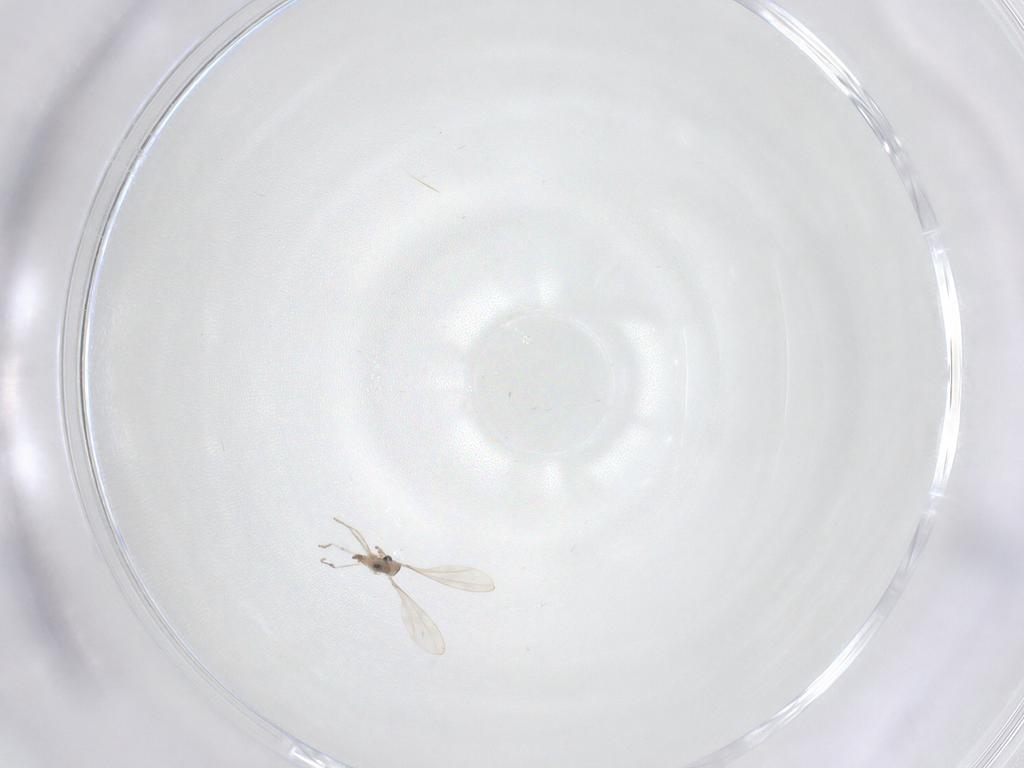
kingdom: Animalia
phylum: Arthropoda
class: Insecta
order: Diptera
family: Cecidomyiidae
